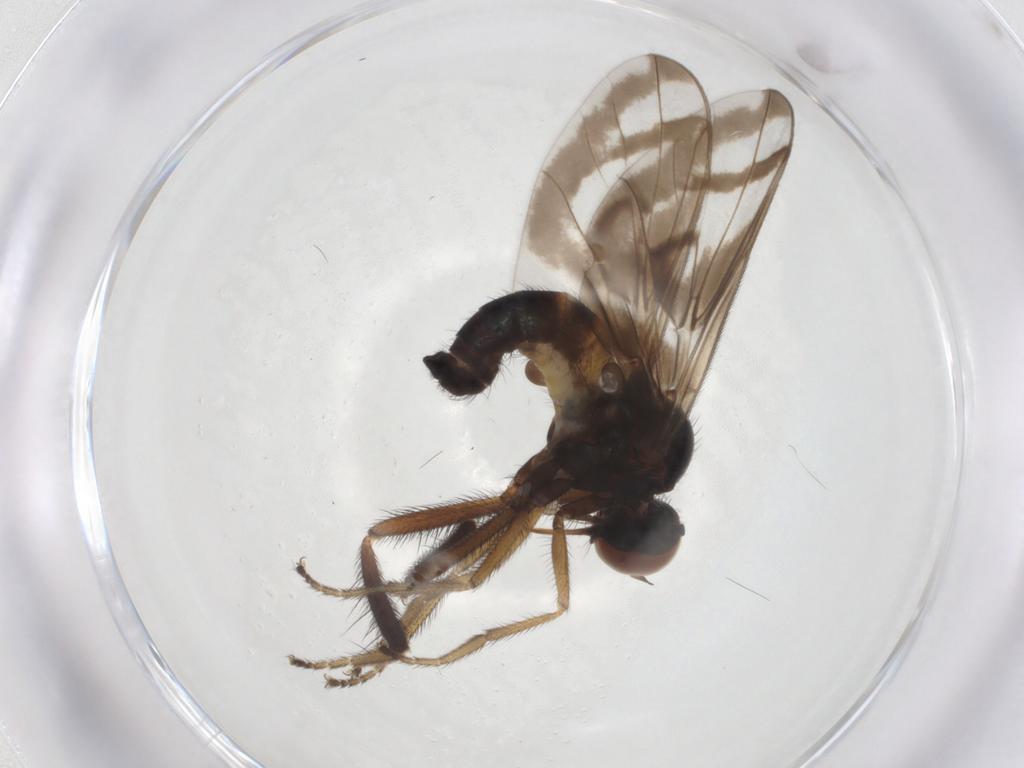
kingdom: Animalia
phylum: Arthropoda
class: Insecta
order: Diptera
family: Empididae
